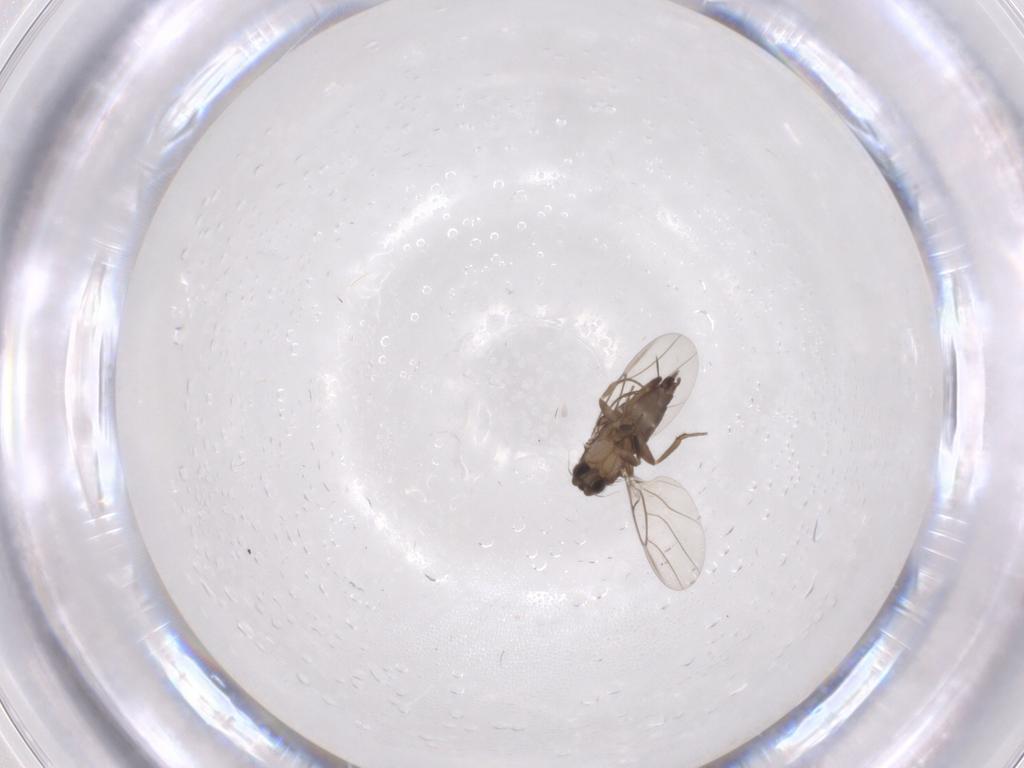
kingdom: Animalia
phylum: Arthropoda
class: Insecta
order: Diptera
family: Phoridae
